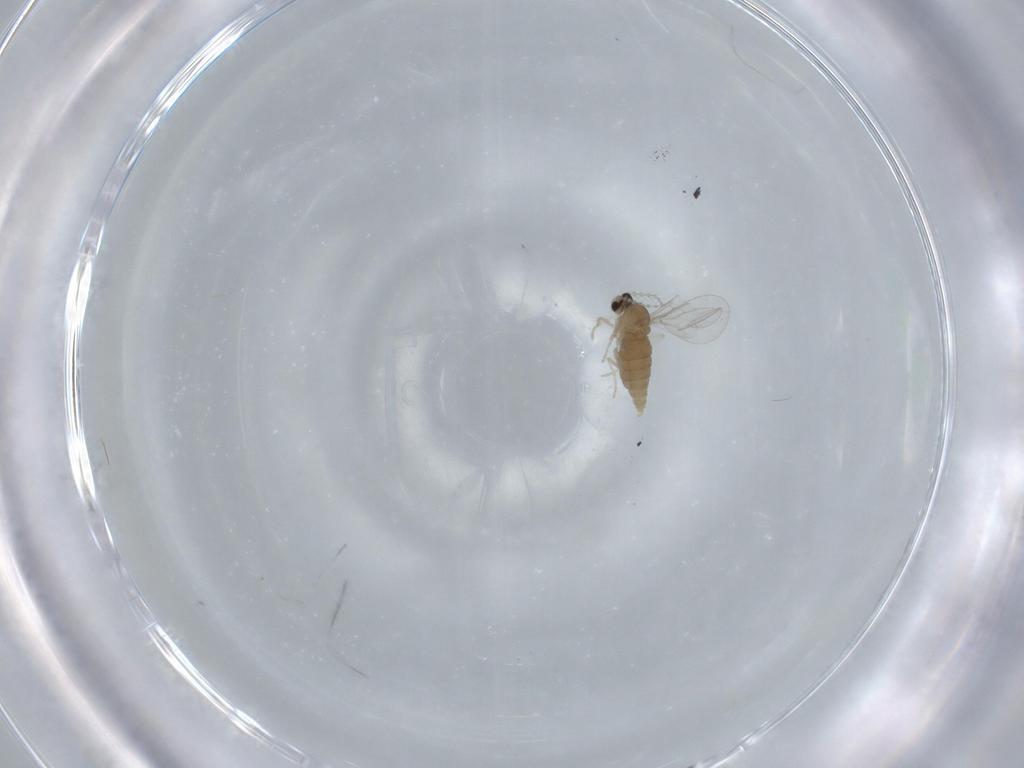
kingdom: Animalia
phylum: Arthropoda
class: Insecta
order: Diptera
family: Cecidomyiidae
